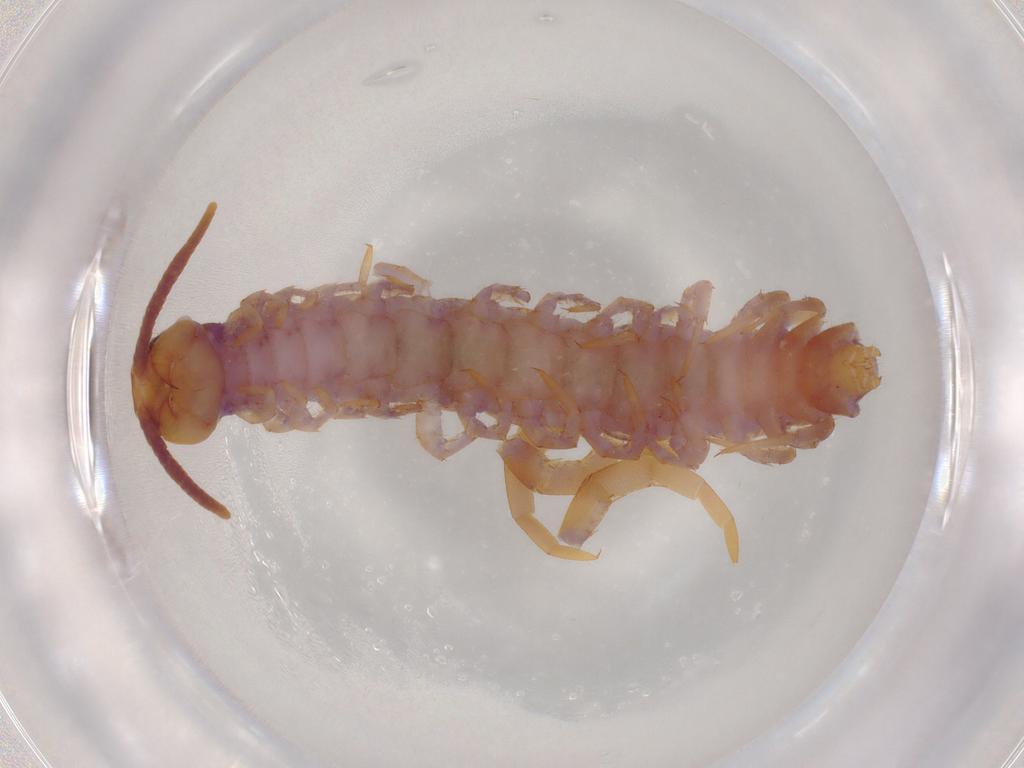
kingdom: Animalia
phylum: Arthropoda
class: Chilopoda
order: Lithobiomorpha
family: Lithobiidae
